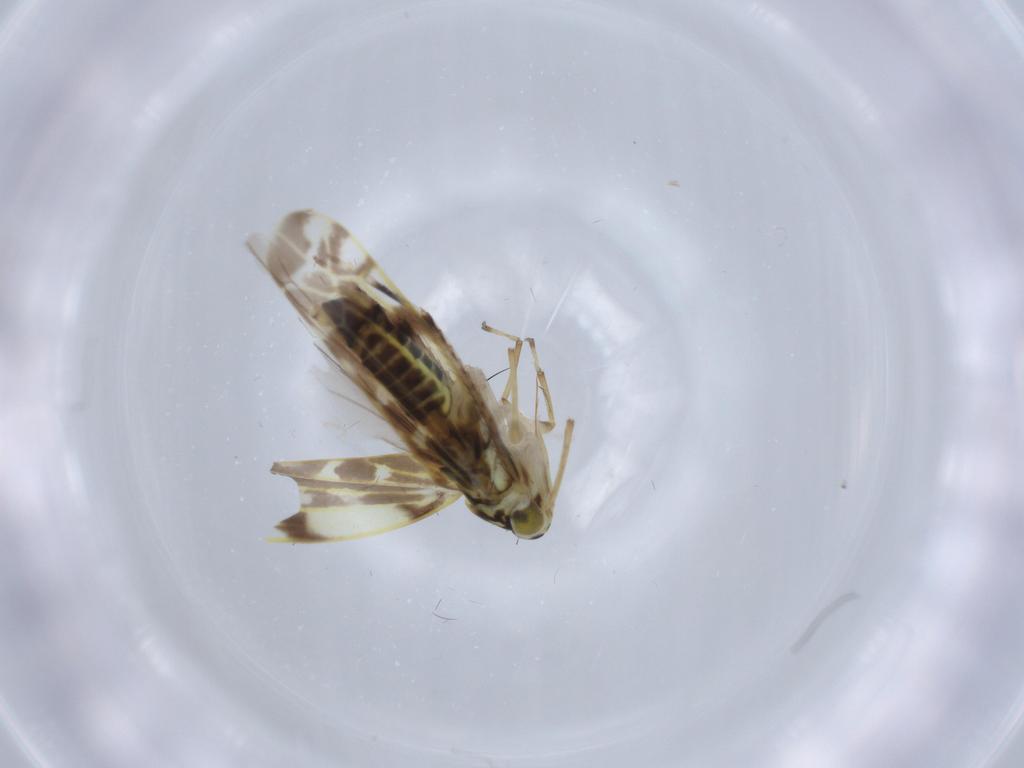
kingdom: Animalia
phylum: Arthropoda
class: Insecta
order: Hemiptera
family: Cicadellidae
